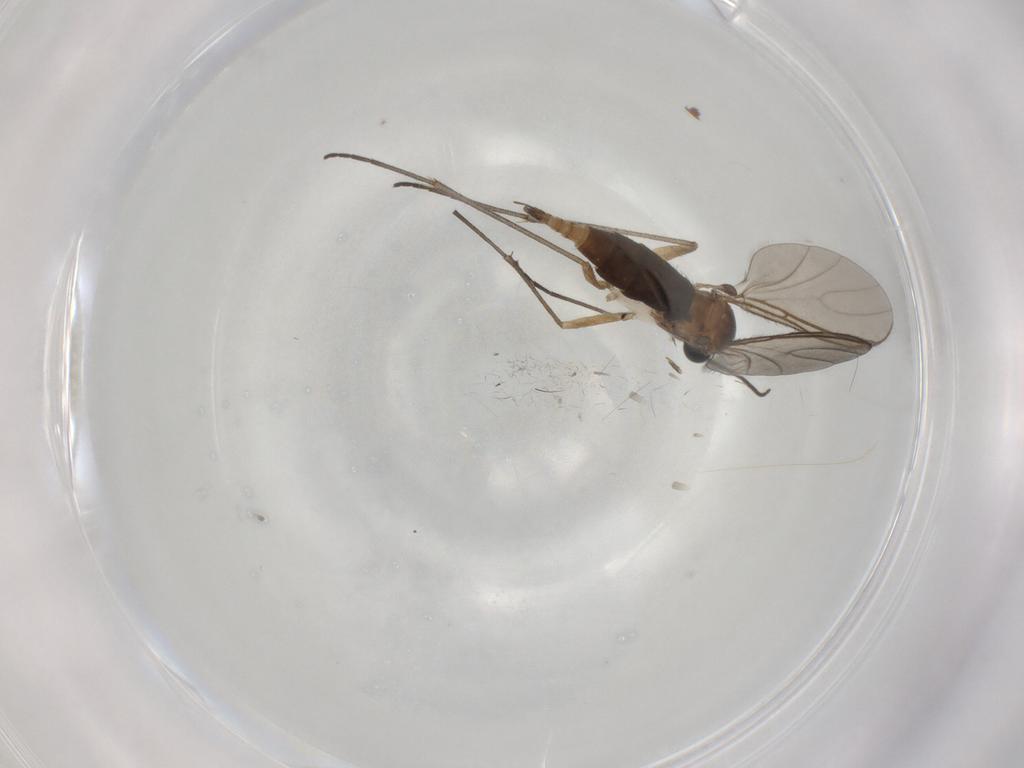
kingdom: Animalia
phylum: Arthropoda
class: Insecta
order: Diptera
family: Sciaridae
